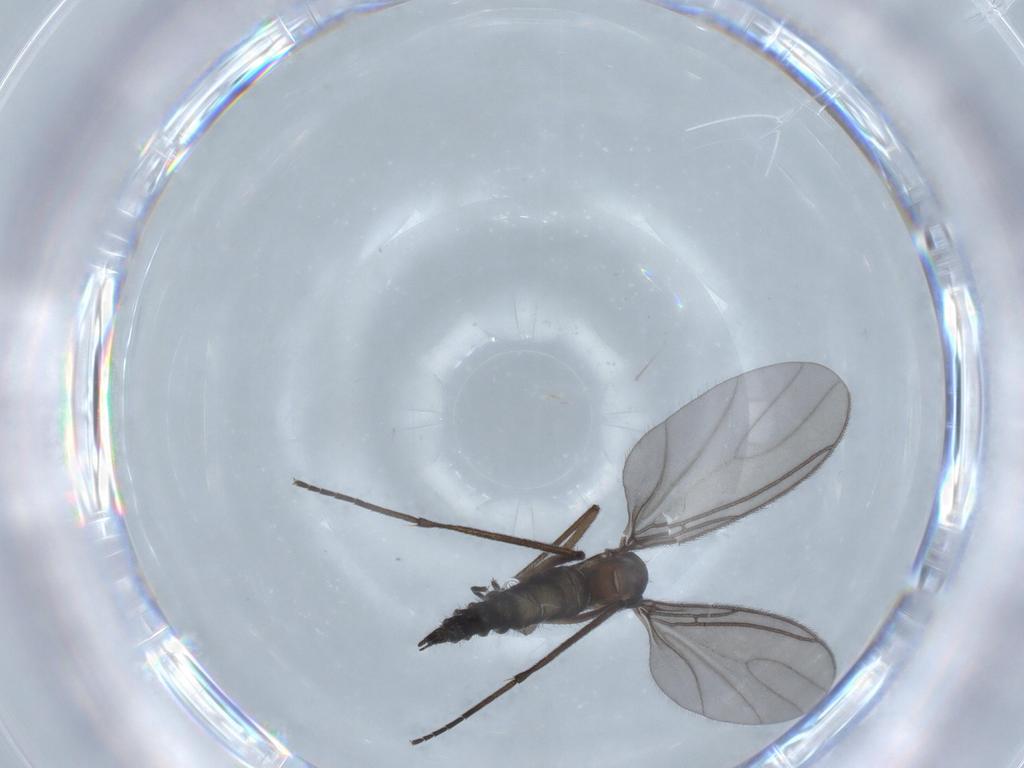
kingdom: Animalia
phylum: Arthropoda
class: Insecta
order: Diptera
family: Sciaridae
